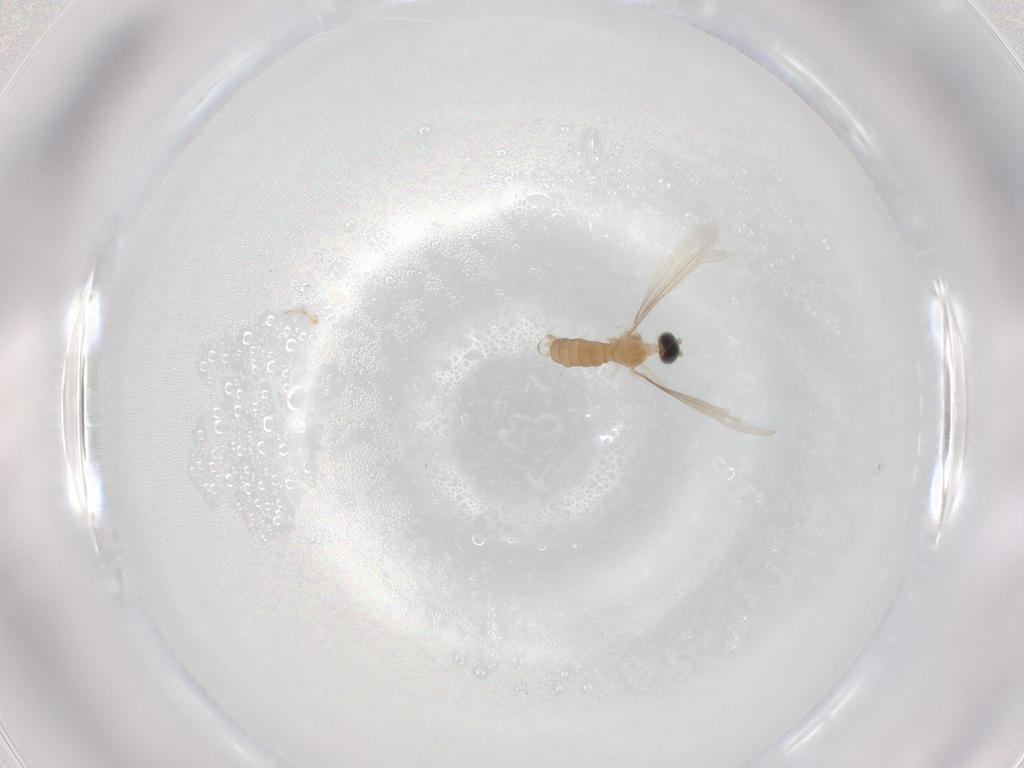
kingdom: Animalia
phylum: Arthropoda
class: Insecta
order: Diptera
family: Cecidomyiidae
